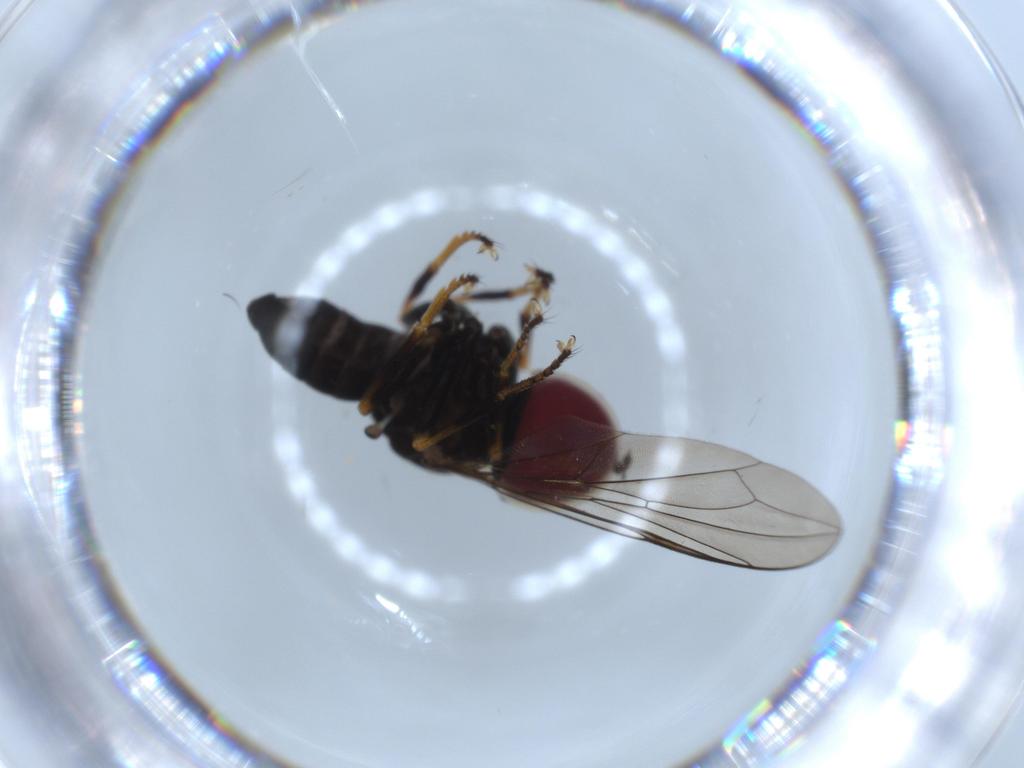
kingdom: Animalia
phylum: Arthropoda
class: Insecta
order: Diptera
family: Pipunculidae
